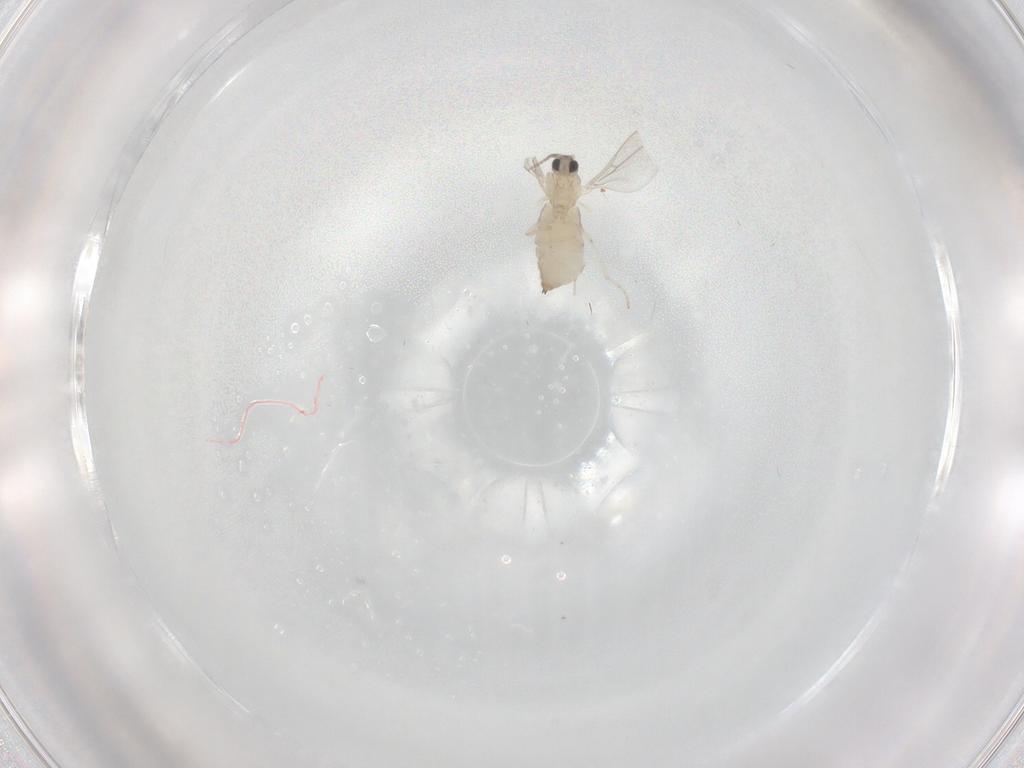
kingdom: Animalia
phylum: Arthropoda
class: Insecta
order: Diptera
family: Cecidomyiidae
